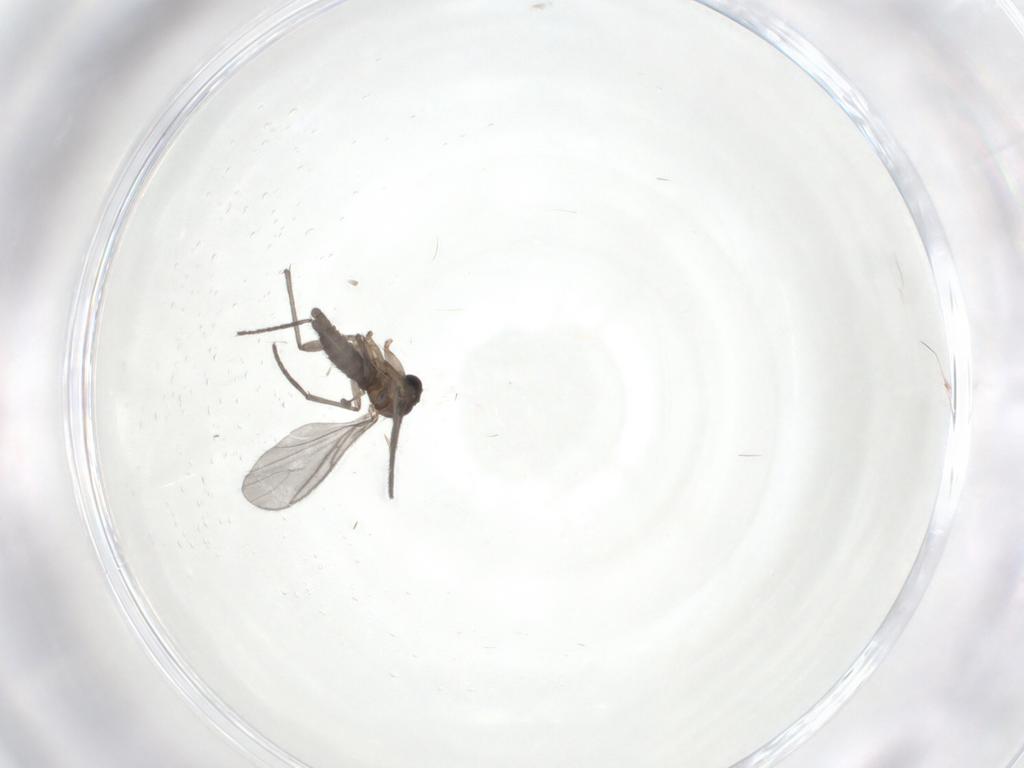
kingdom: Animalia
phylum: Arthropoda
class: Insecta
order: Diptera
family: Sciaridae
